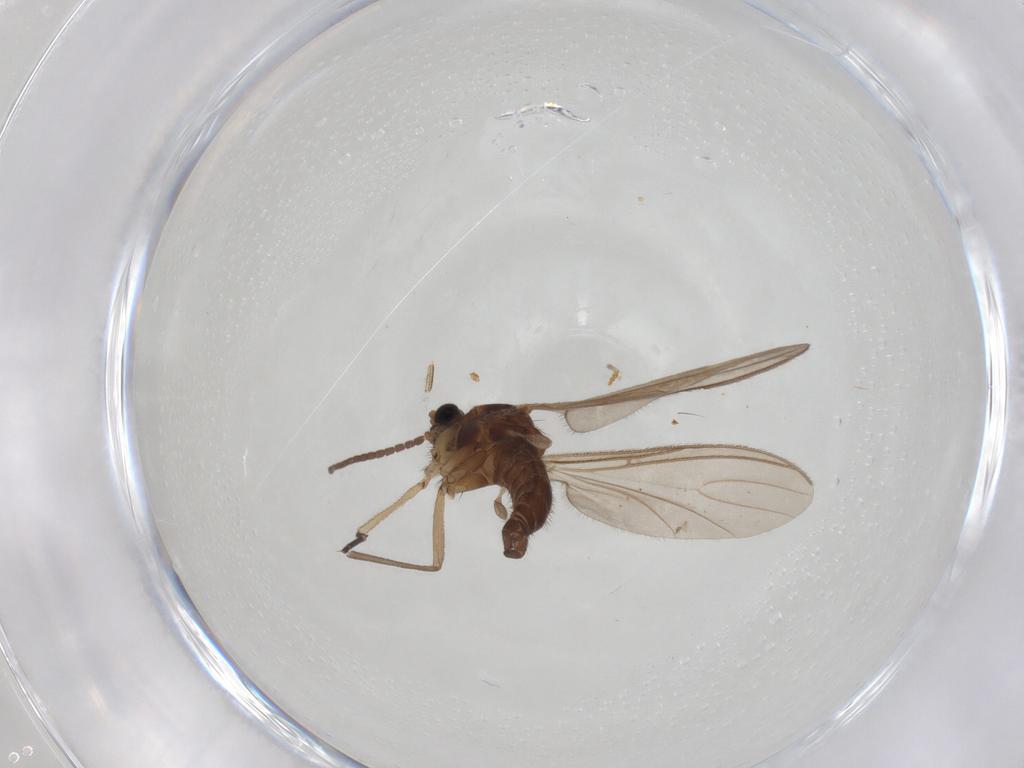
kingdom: Animalia
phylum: Arthropoda
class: Insecta
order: Diptera
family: Sciaridae
